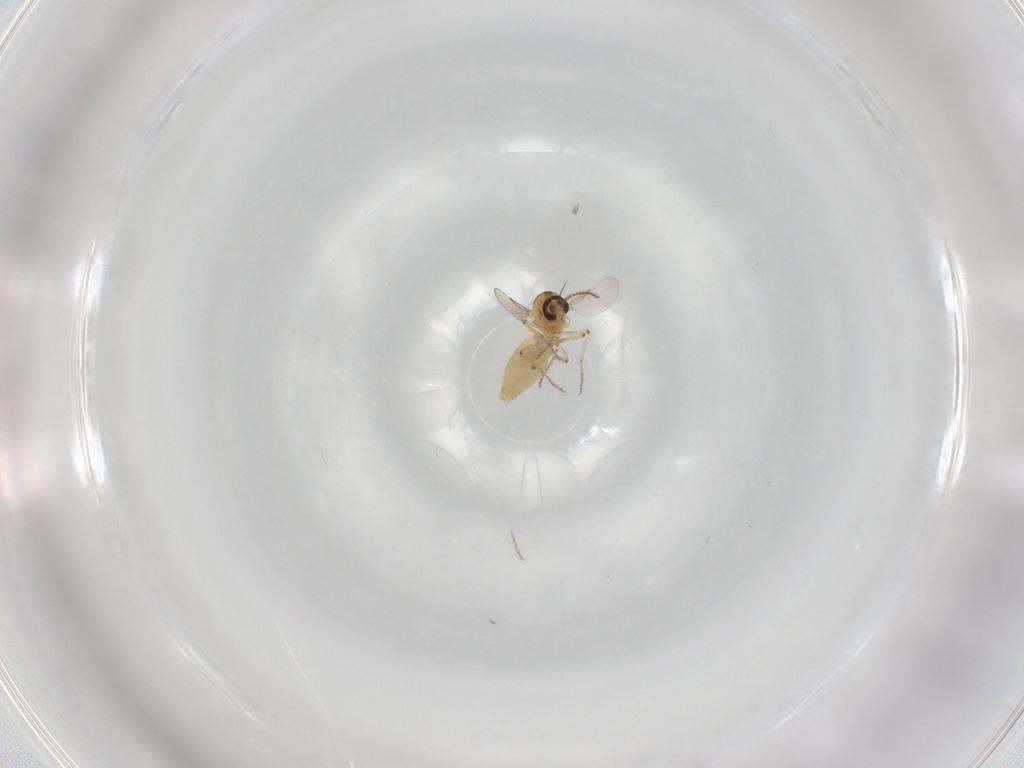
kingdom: Animalia
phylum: Arthropoda
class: Insecta
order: Diptera
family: Ceratopogonidae
